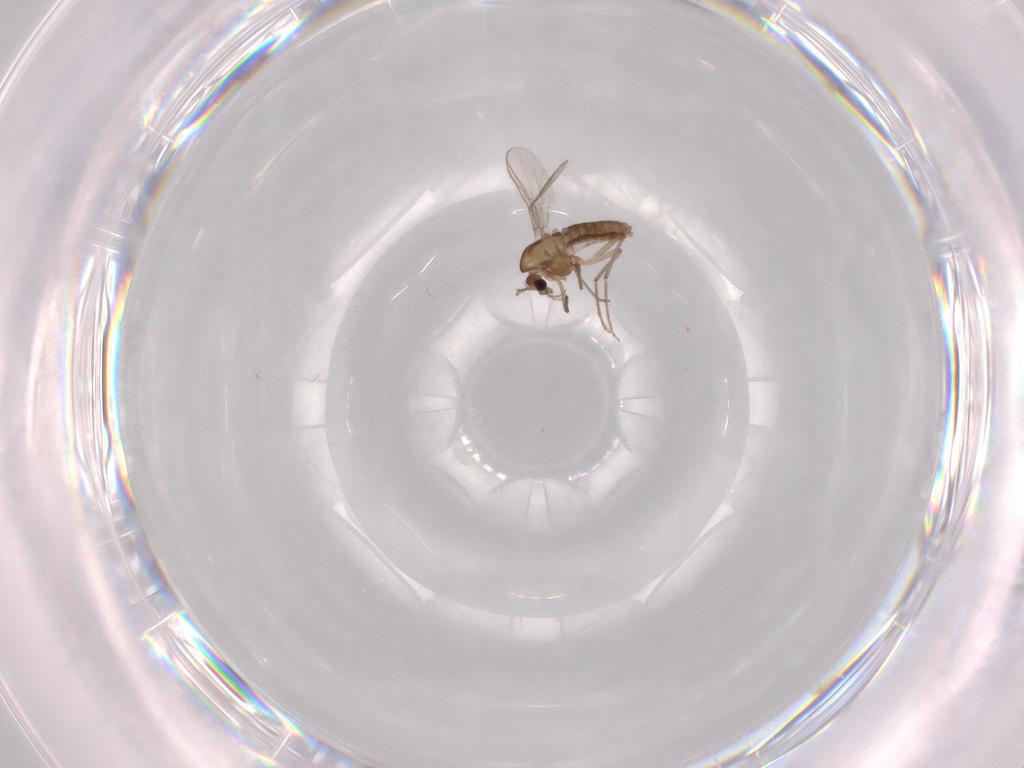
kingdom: Animalia
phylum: Arthropoda
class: Insecta
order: Diptera
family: Chironomidae
